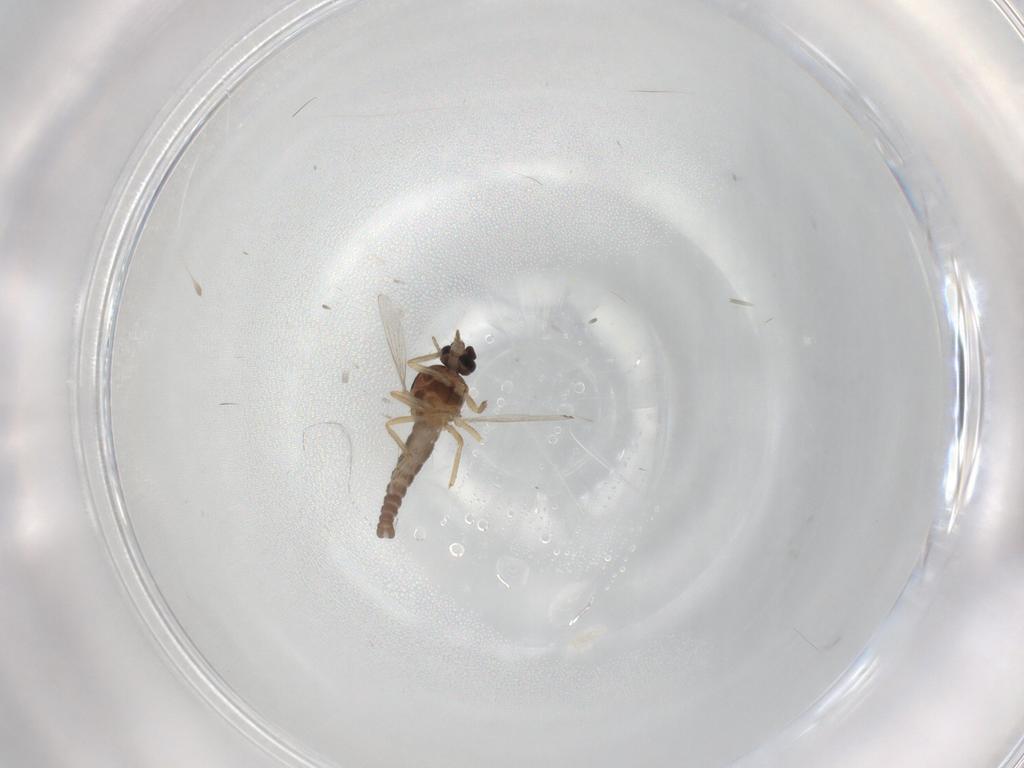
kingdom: Animalia
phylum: Arthropoda
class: Insecta
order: Diptera
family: Ceratopogonidae
